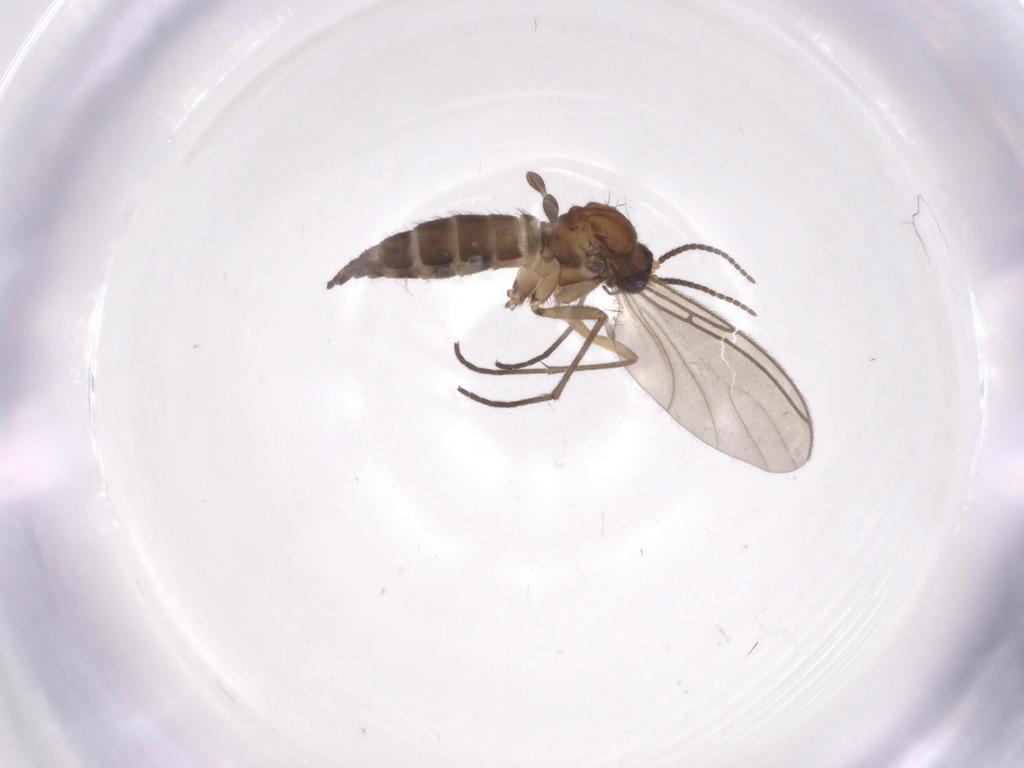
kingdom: Animalia
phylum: Arthropoda
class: Insecta
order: Diptera
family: Sciaridae
